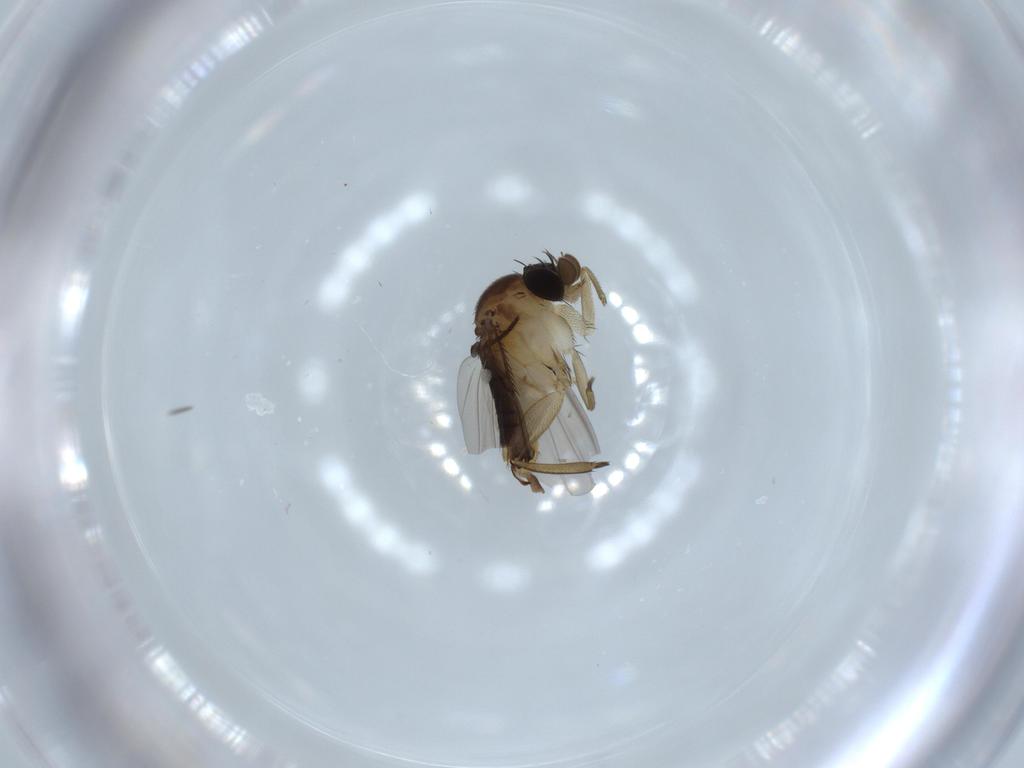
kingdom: Animalia
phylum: Arthropoda
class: Insecta
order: Diptera
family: Phoridae
